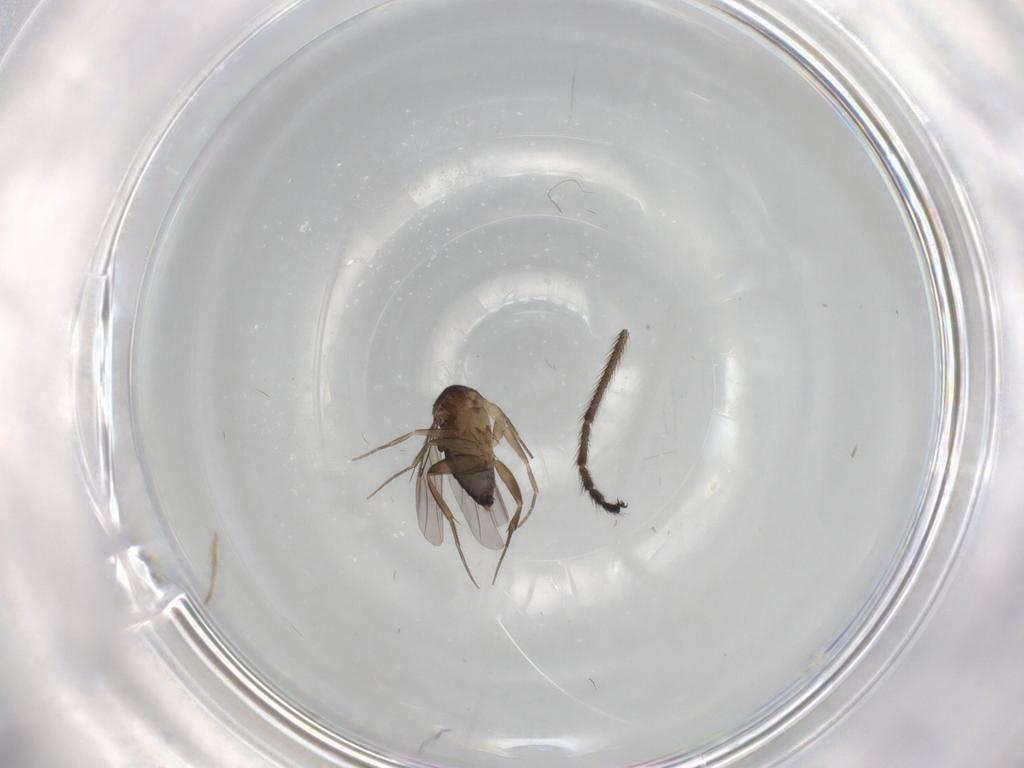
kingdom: Animalia
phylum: Arthropoda
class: Insecta
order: Diptera
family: Limoniidae
